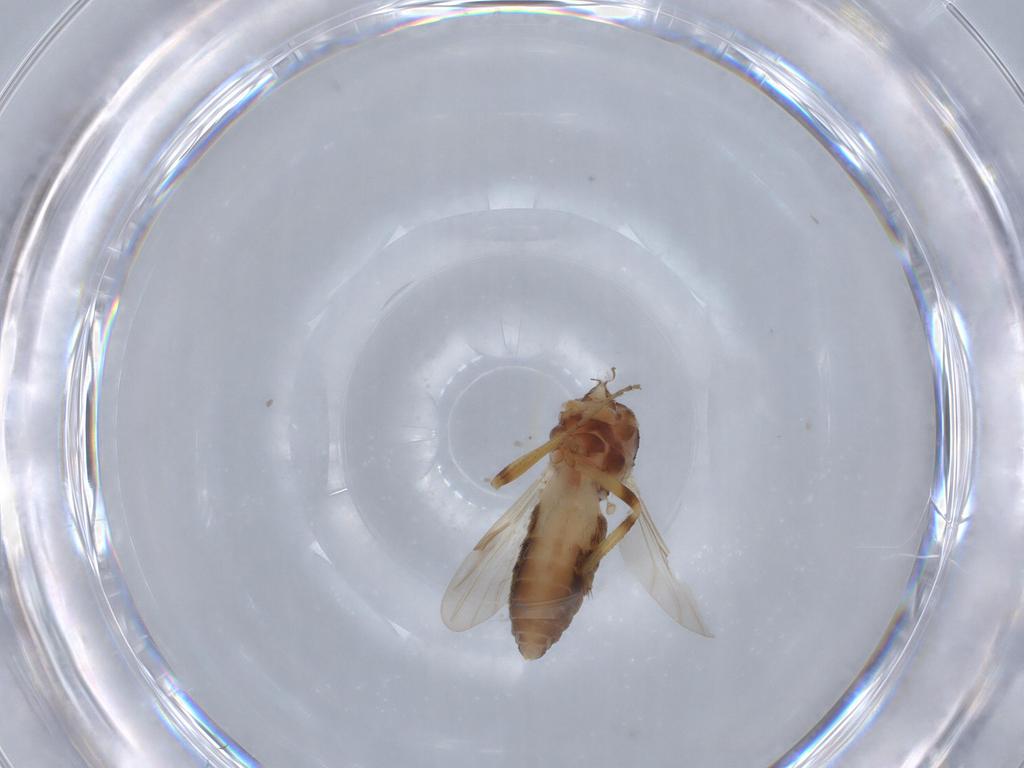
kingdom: Animalia
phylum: Arthropoda
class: Insecta
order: Diptera
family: Ceratopogonidae
